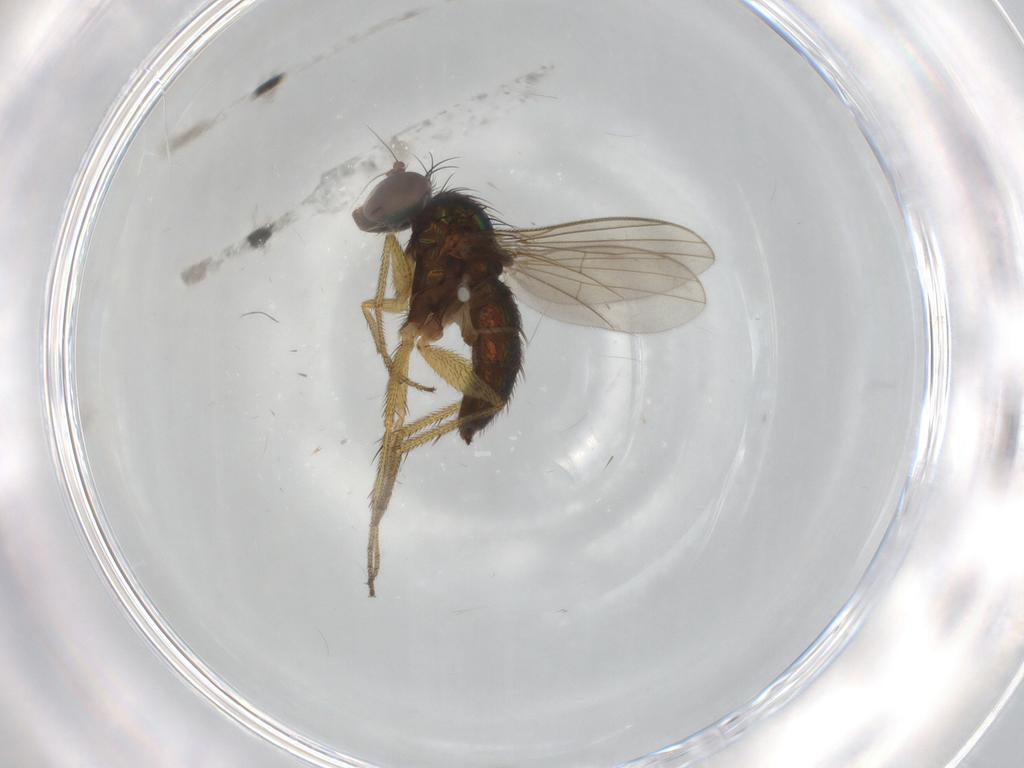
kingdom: Animalia
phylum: Arthropoda
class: Insecta
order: Diptera
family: Dolichopodidae
